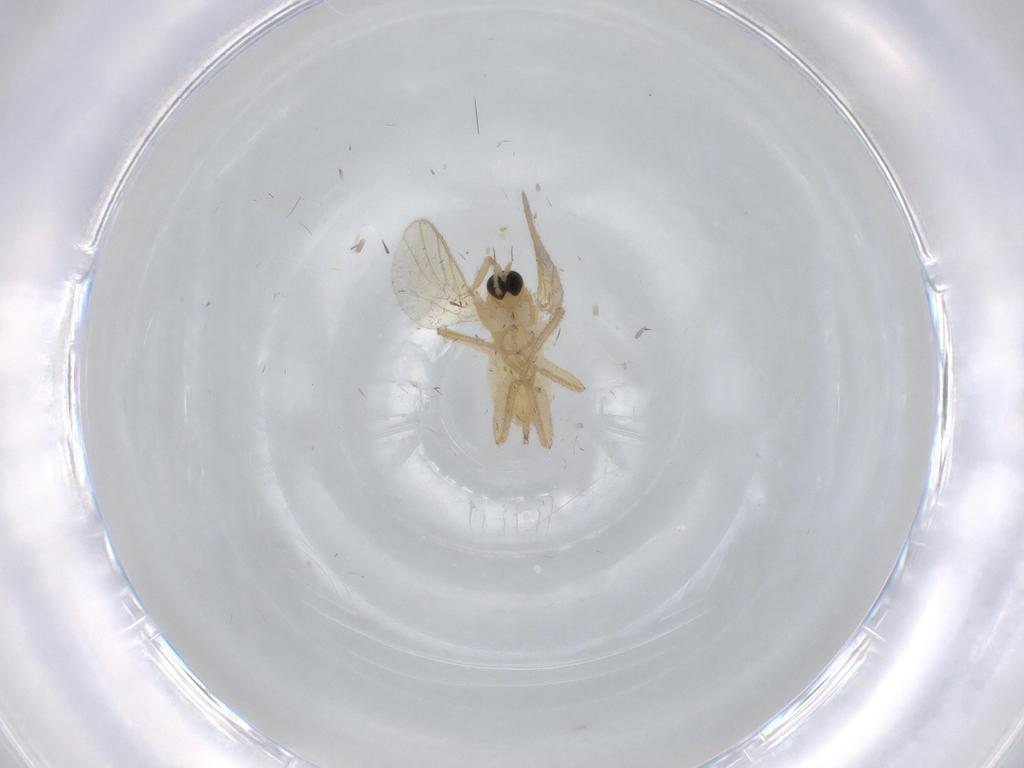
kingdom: Animalia
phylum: Arthropoda
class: Insecta
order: Diptera
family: Hybotidae
